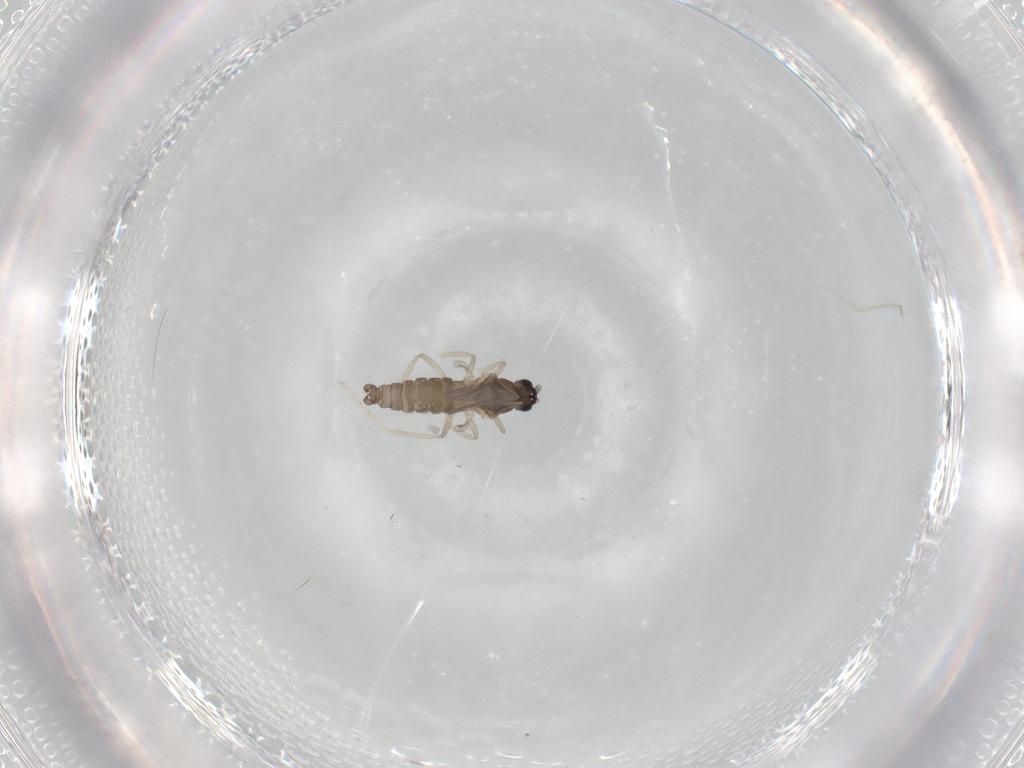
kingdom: Animalia
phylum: Arthropoda
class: Insecta
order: Diptera
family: Cecidomyiidae
